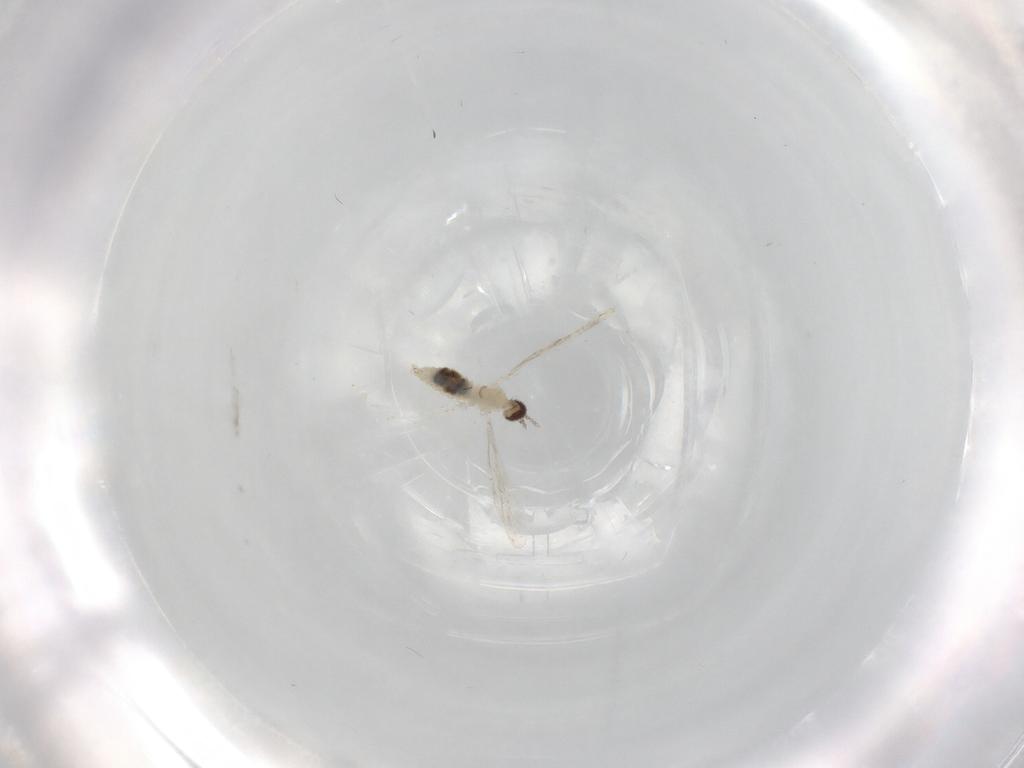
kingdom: Animalia
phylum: Arthropoda
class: Insecta
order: Diptera
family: Cecidomyiidae
